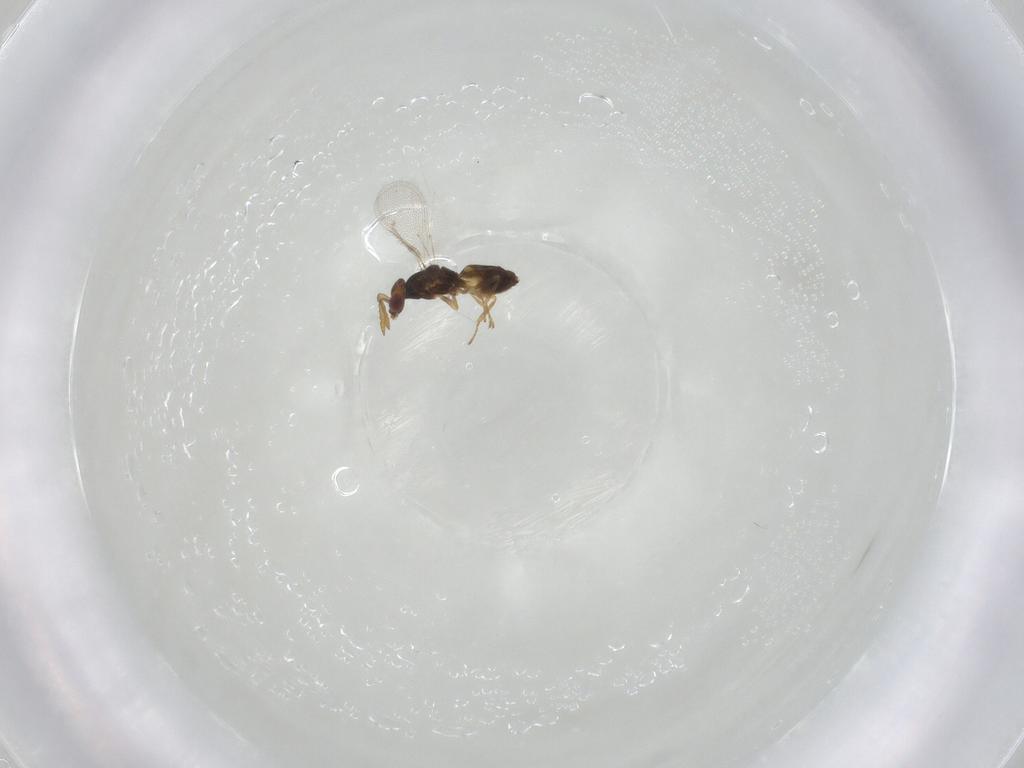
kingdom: Animalia
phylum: Arthropoda
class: Insecta
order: Hymenoptera
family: Eulophidae
